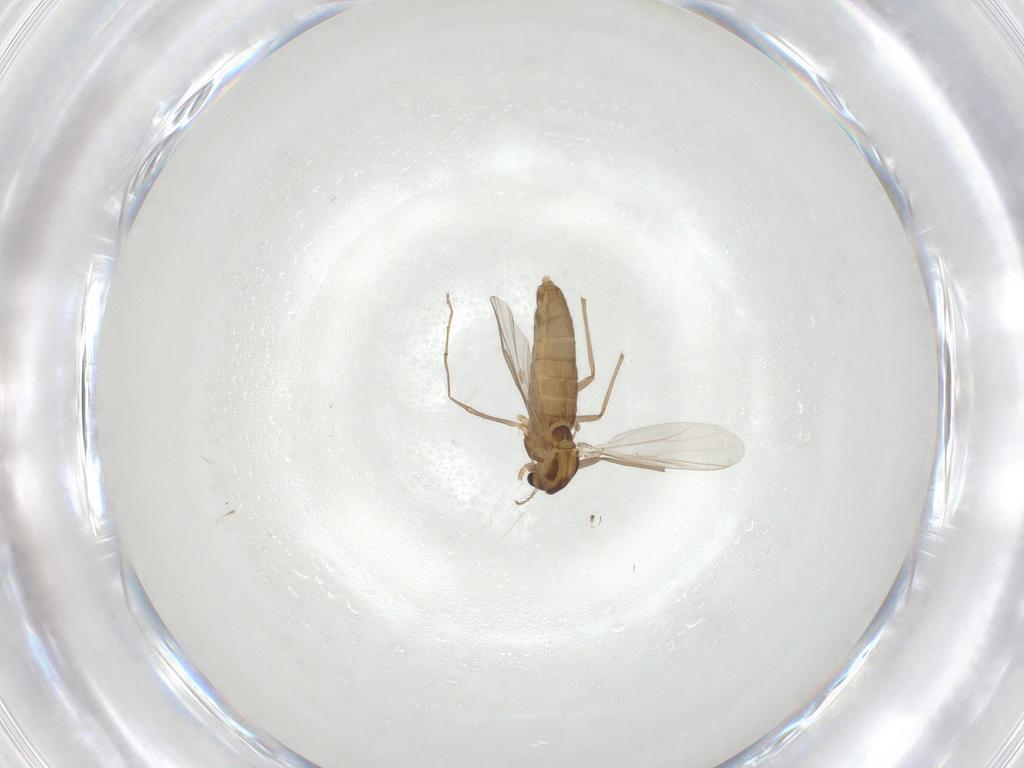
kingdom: Animalia
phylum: Arthropoda
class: Insecta
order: Diptera
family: Chironomidae
